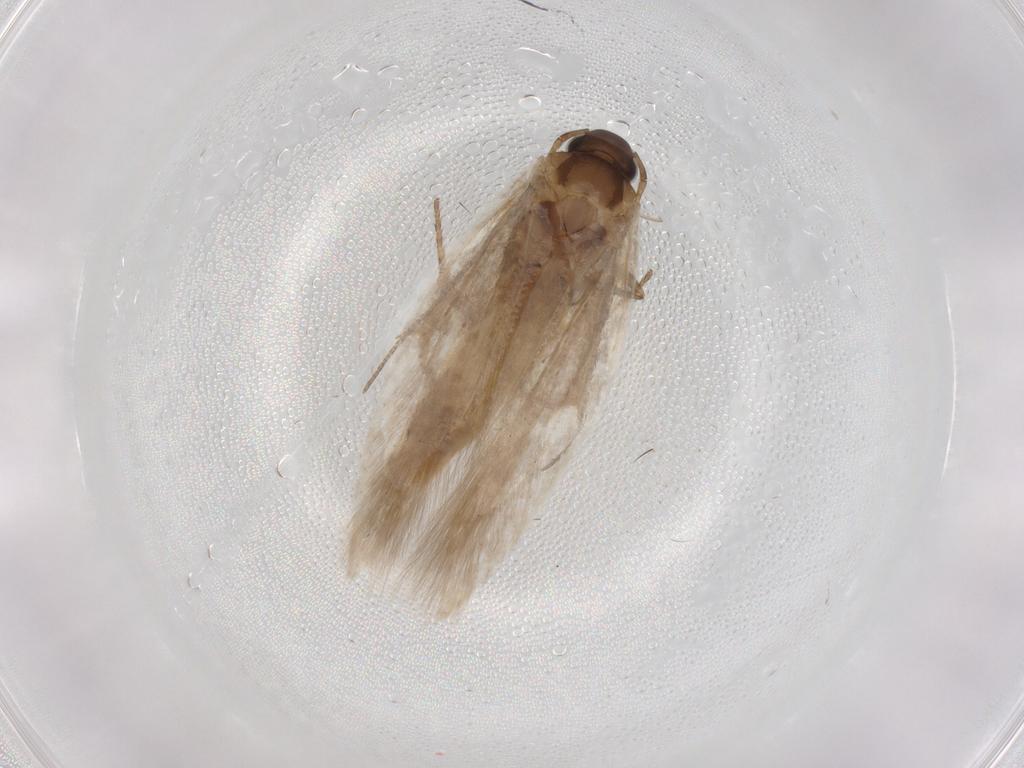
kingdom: Animalia
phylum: Arthropoda
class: Insecta
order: Lepidoptera
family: Gelechiidae
